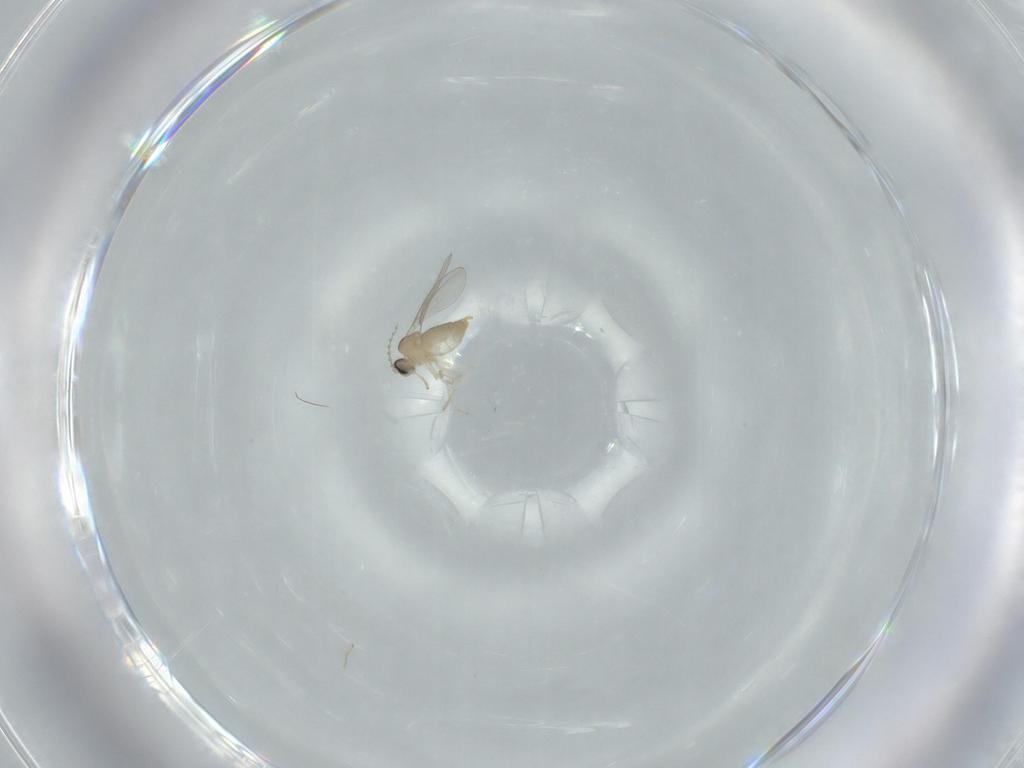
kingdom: Animalia
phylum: Arthropoda
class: Insecta
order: Diptera
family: Cecidomyiidae
